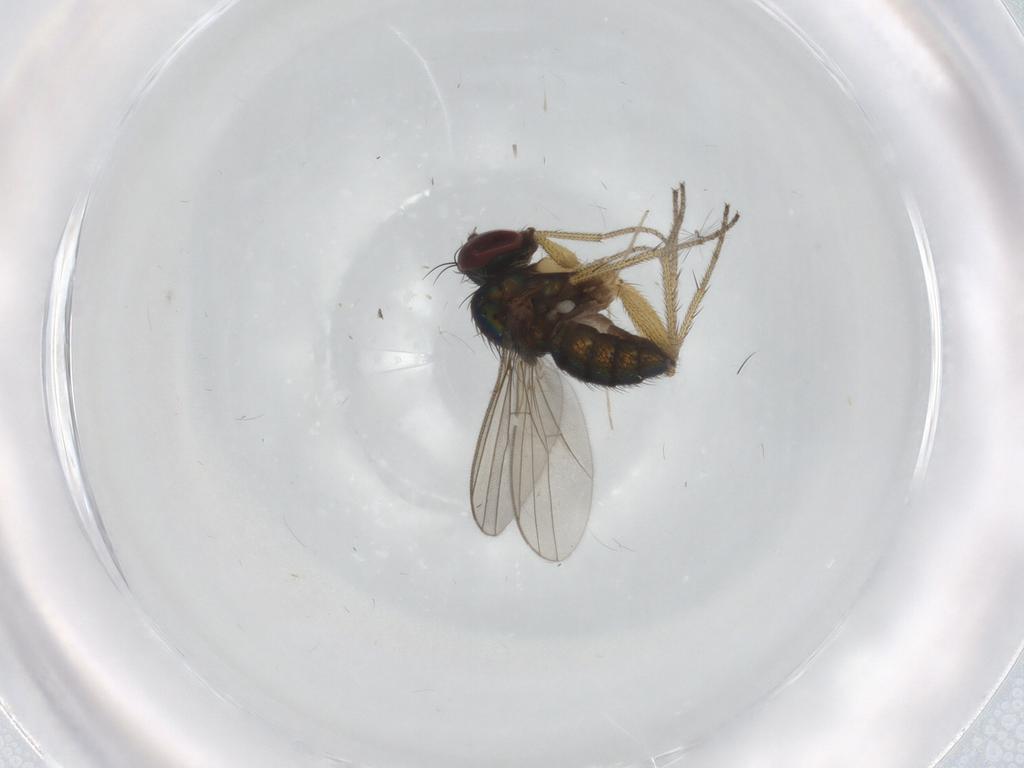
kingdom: Animalia
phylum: Arthropoda
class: Insecta
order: Diptera
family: Chironomidae
